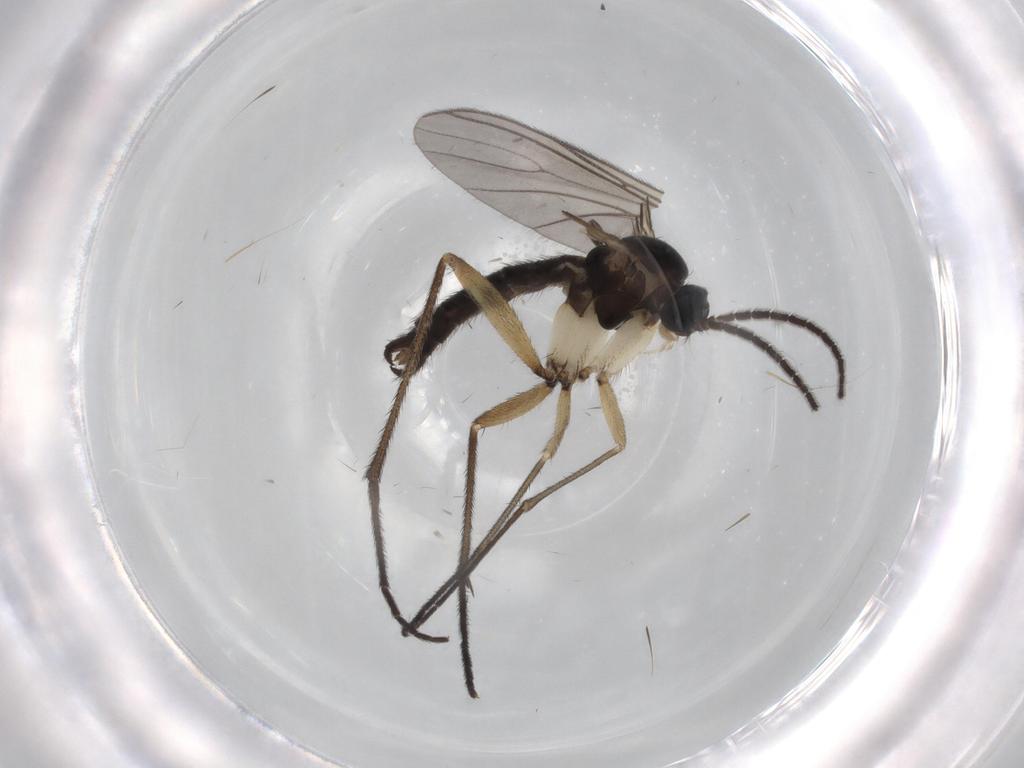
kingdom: Animalia
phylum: Arthropoda
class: Insecta
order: Diptera
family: Sciaridae
